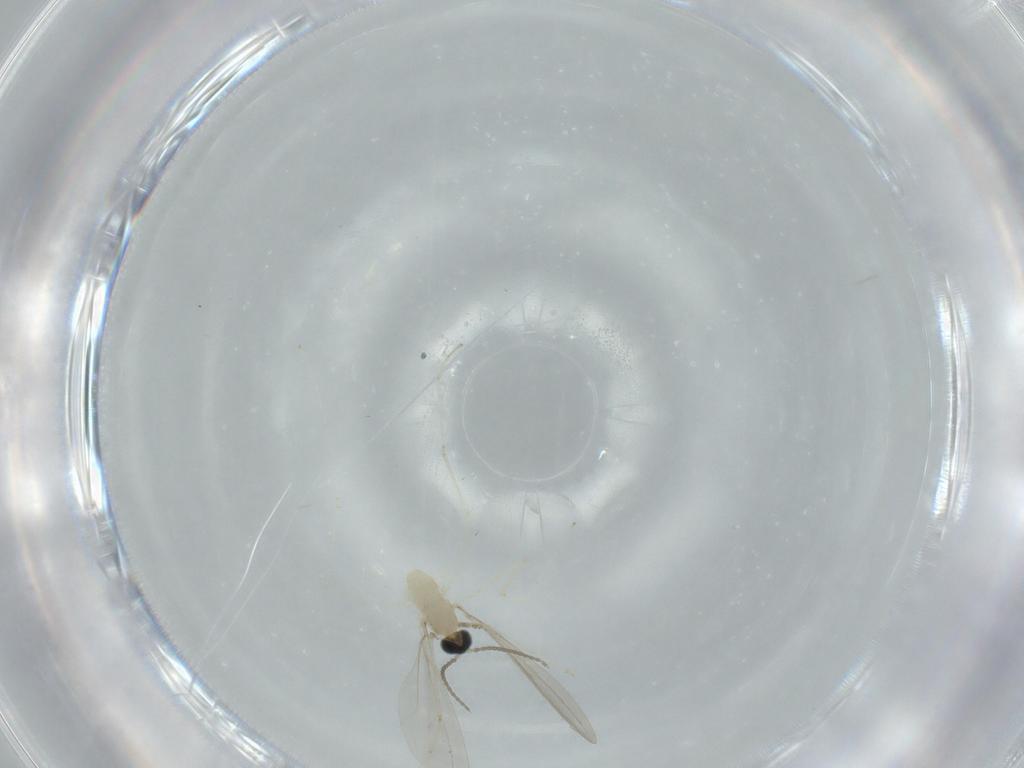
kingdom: Animalia
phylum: Arthropoda
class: Insecta
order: Diptera
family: Cecidomyiidae
